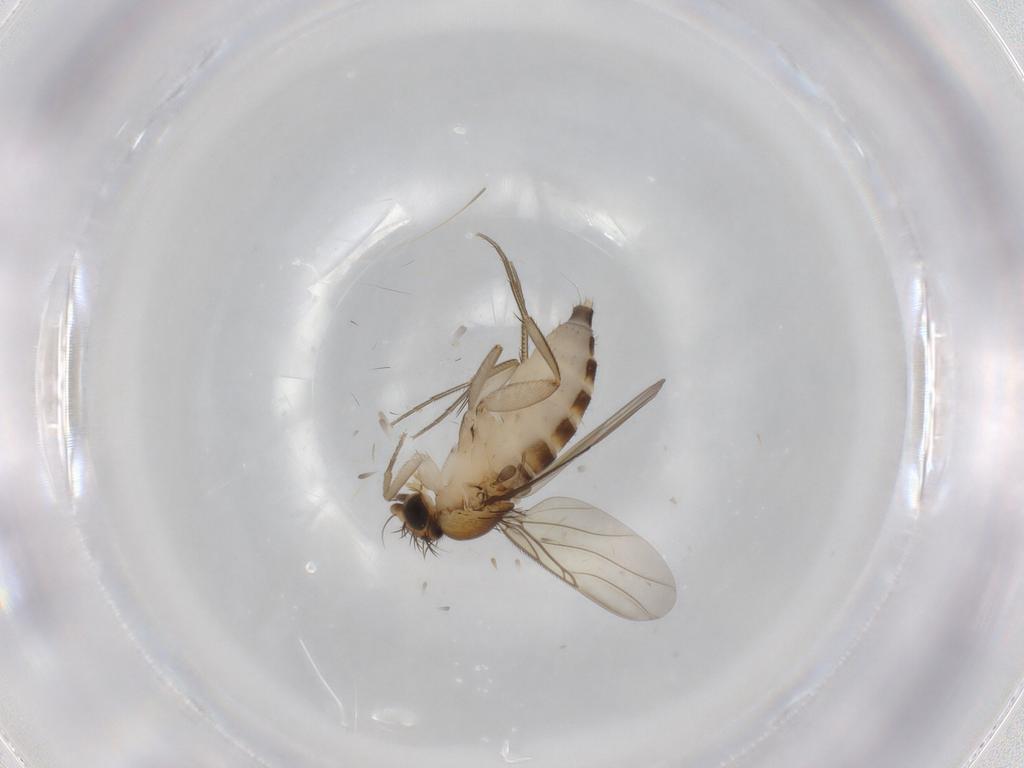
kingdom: Animalia
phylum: Arthropoda
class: Insecta
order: Diptera
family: Phoridae
